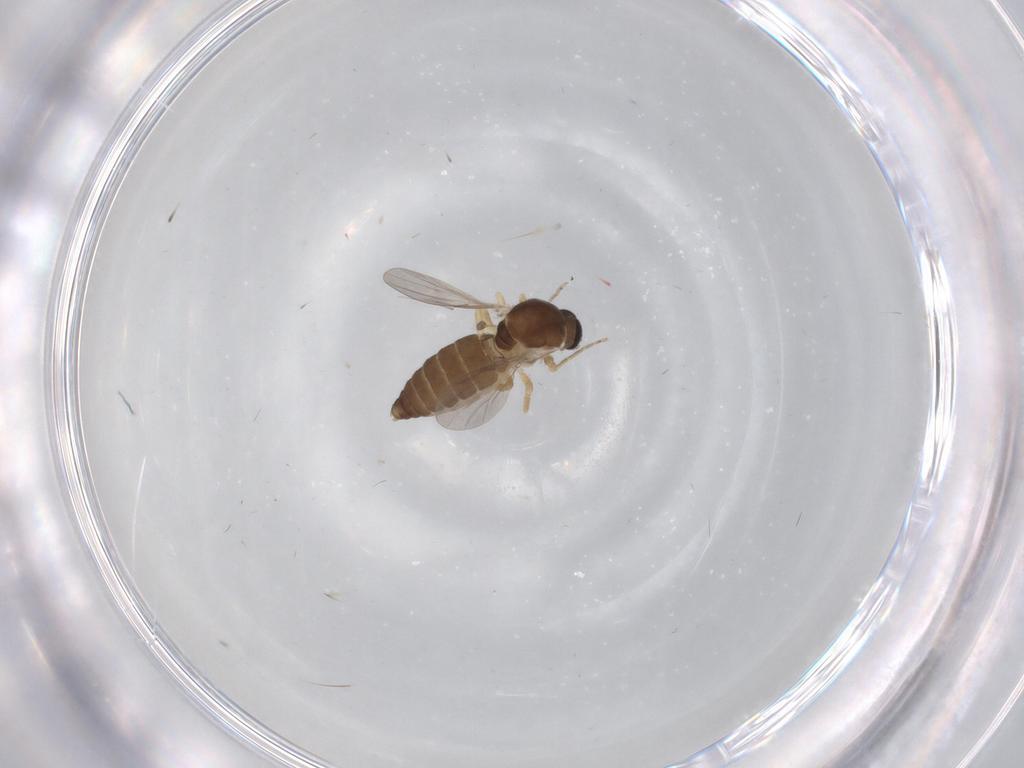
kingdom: Animalia
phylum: Arthropoda
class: Insecta
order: Diptera
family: Ceratopogonidae
